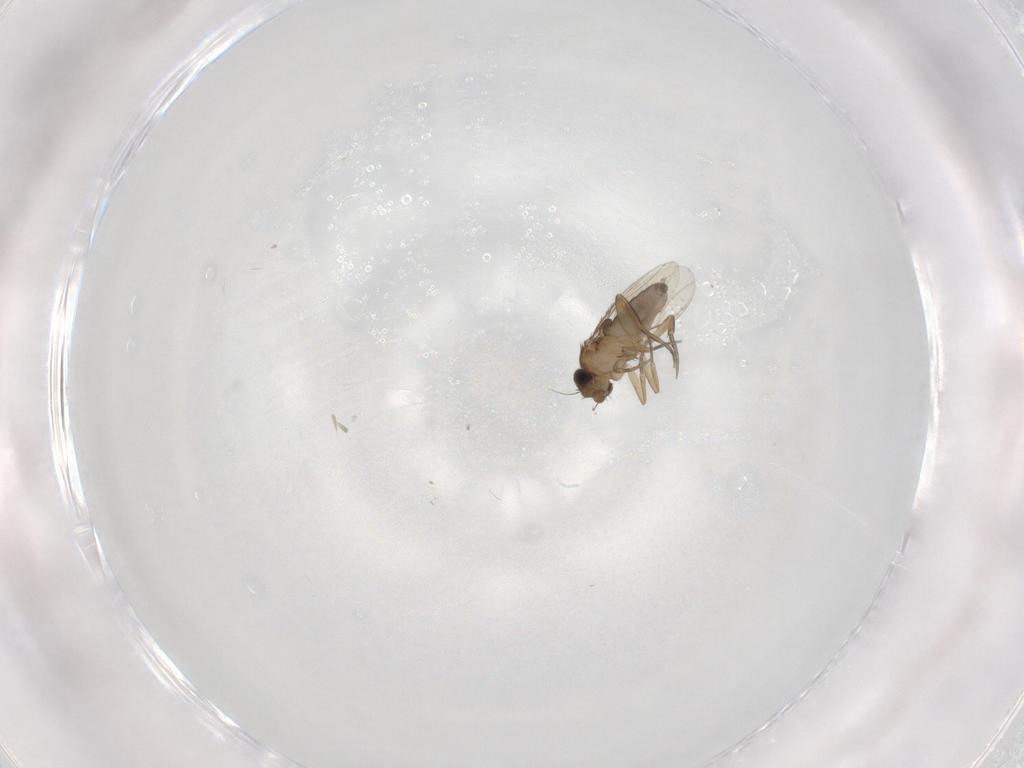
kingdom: Animalia
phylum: Arthropoda
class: Insecta
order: Diptera
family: Phoridae
